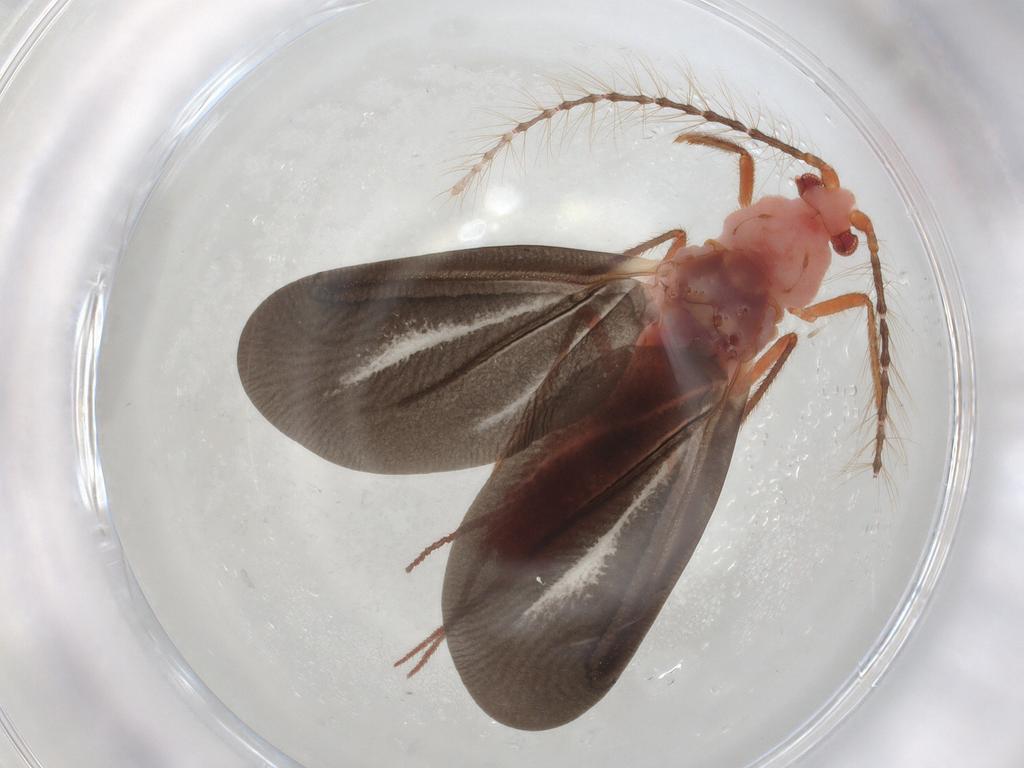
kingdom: Animalia
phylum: Arthropoda
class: Insecta
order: Hemiptera
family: Margarodidae
